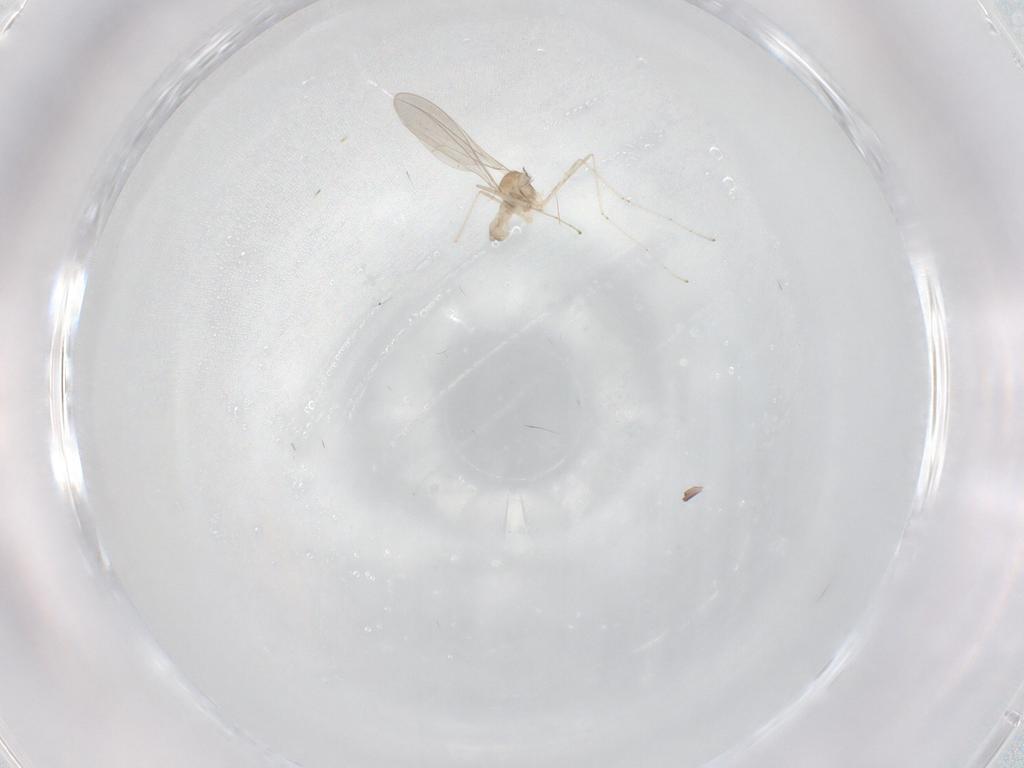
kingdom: Animalia
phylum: Arthropoda
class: Insecta
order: Diptera
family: Cecidomyiidae
